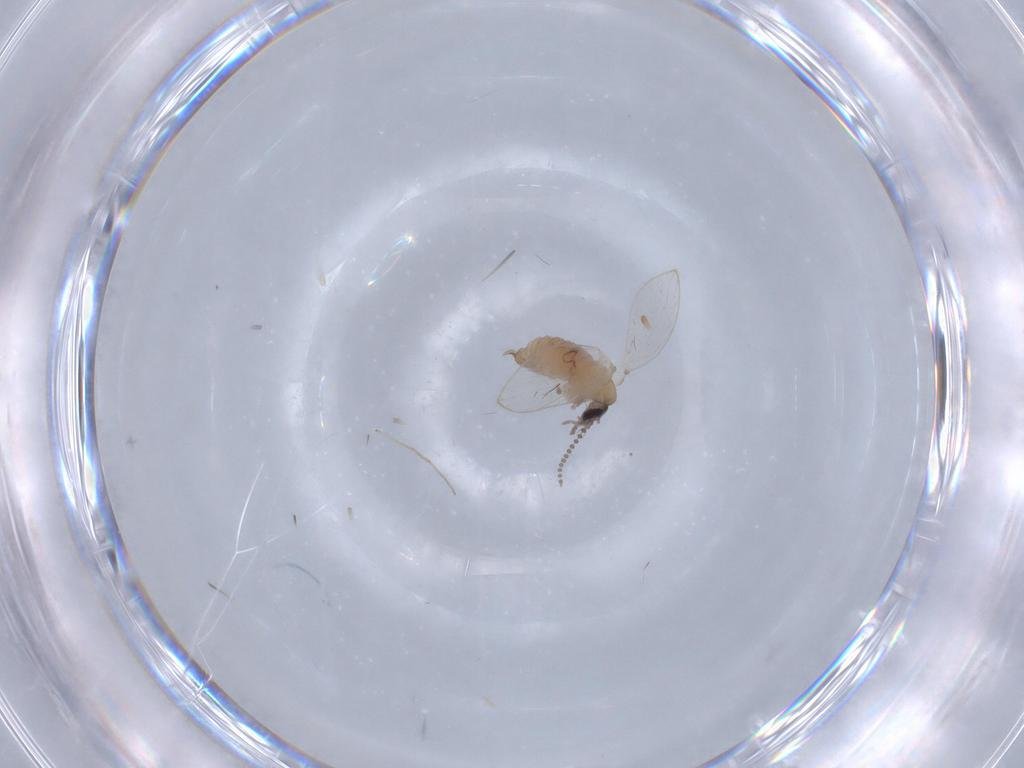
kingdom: Animalia
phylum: Arthropoda
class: Insecta
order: Diptera
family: Chironomidae
